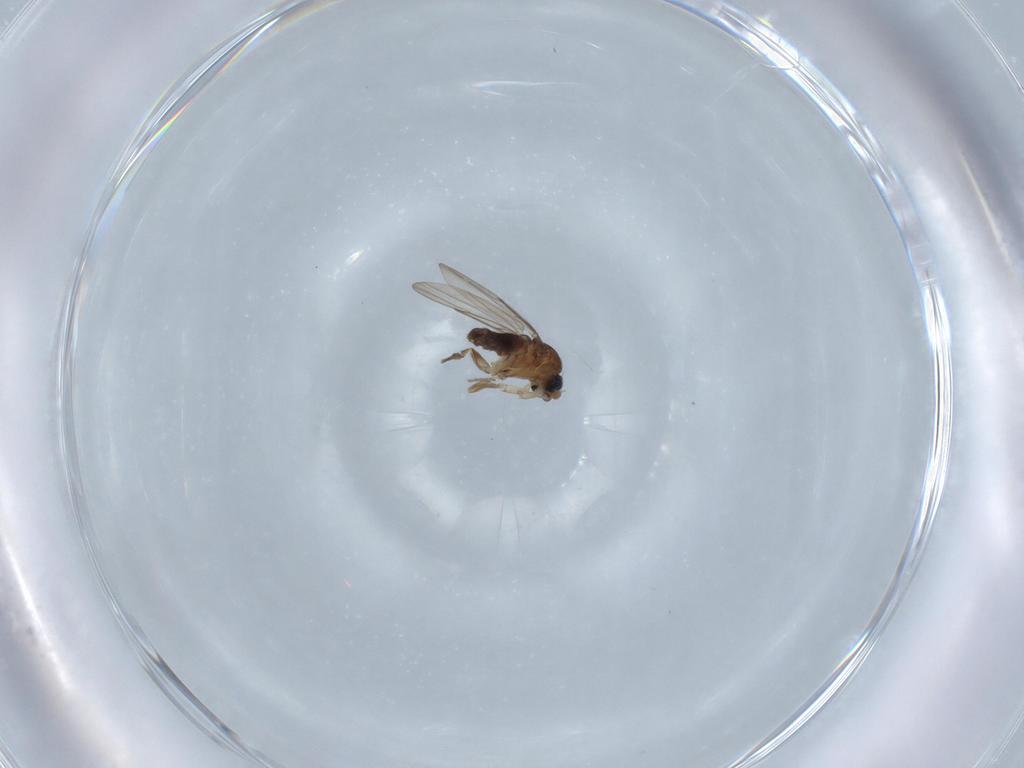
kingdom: Animalia
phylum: Arthropoda
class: Insecta
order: Diptera
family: Phoridae
